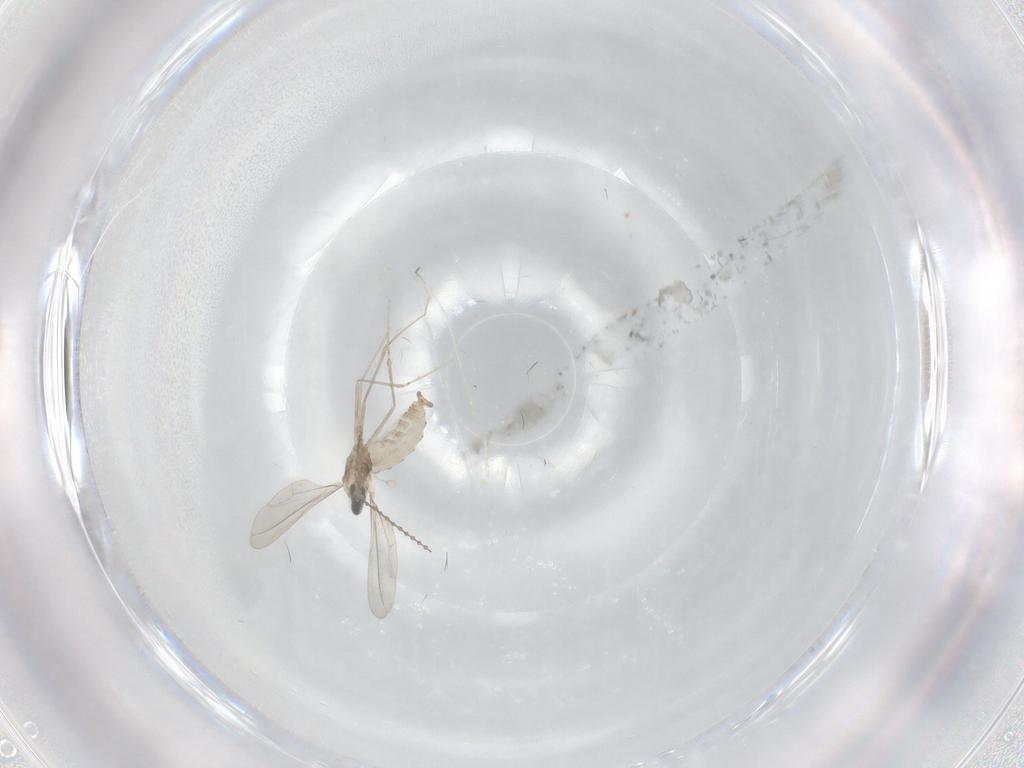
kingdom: Animalia
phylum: Arthropoda
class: Insecta
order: Diptera
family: Cecidomyiidae
